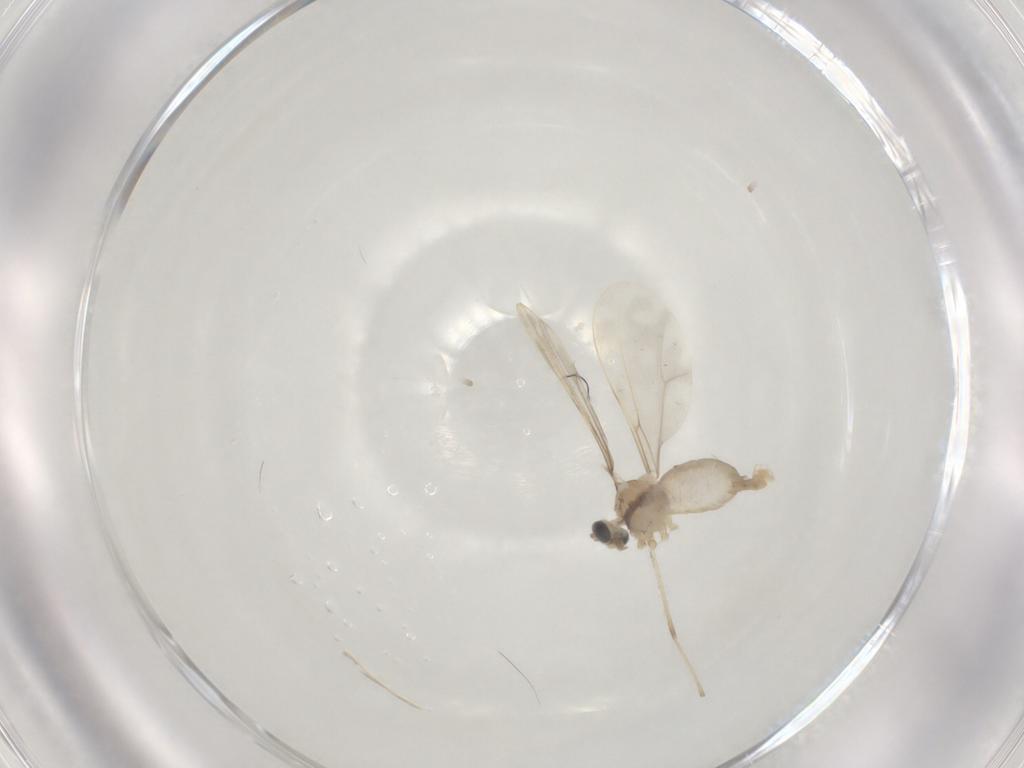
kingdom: Animalia
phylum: Arthropoda
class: Insecta
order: Diptera
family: Cecidomyiidae
